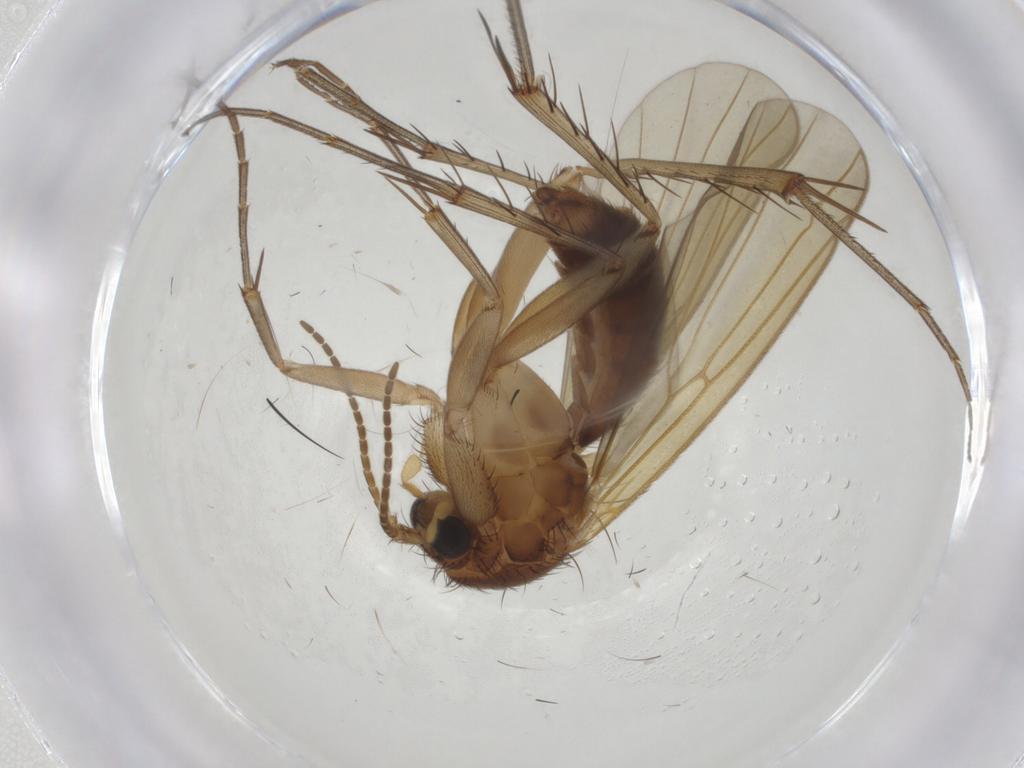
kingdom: Animalia
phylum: Arthropoda
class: Insecta
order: Diptera
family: Mycetophilidae
